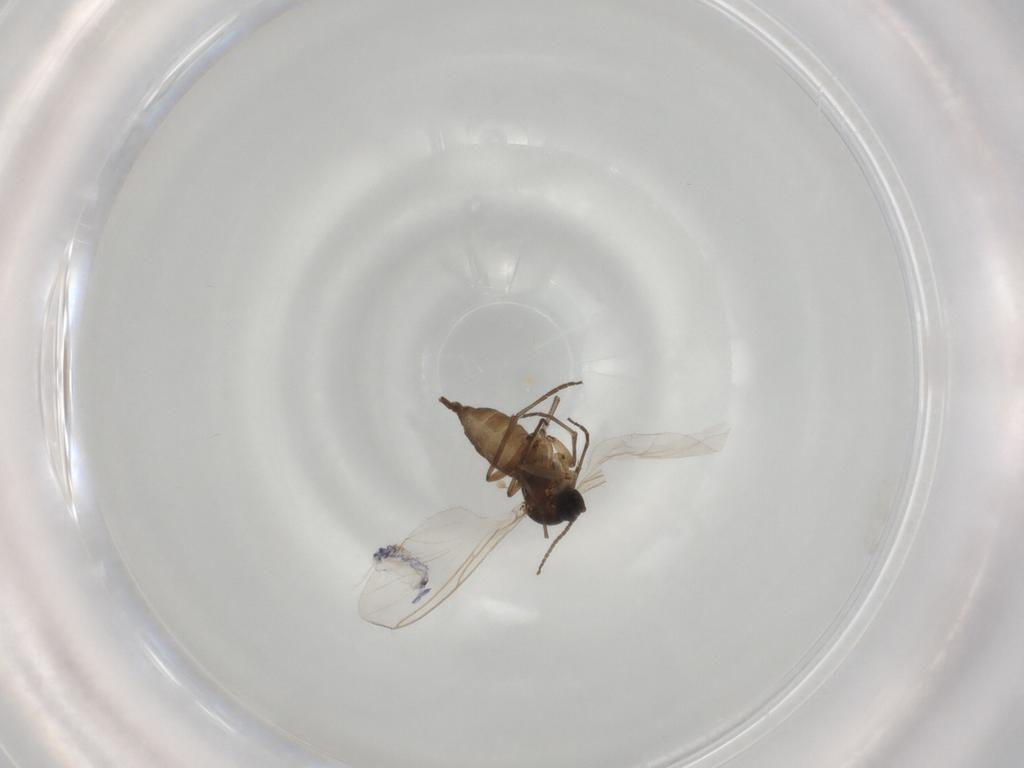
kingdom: Animalia
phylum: Arthropoda
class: Insecta
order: Diptera
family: Sciaridae
